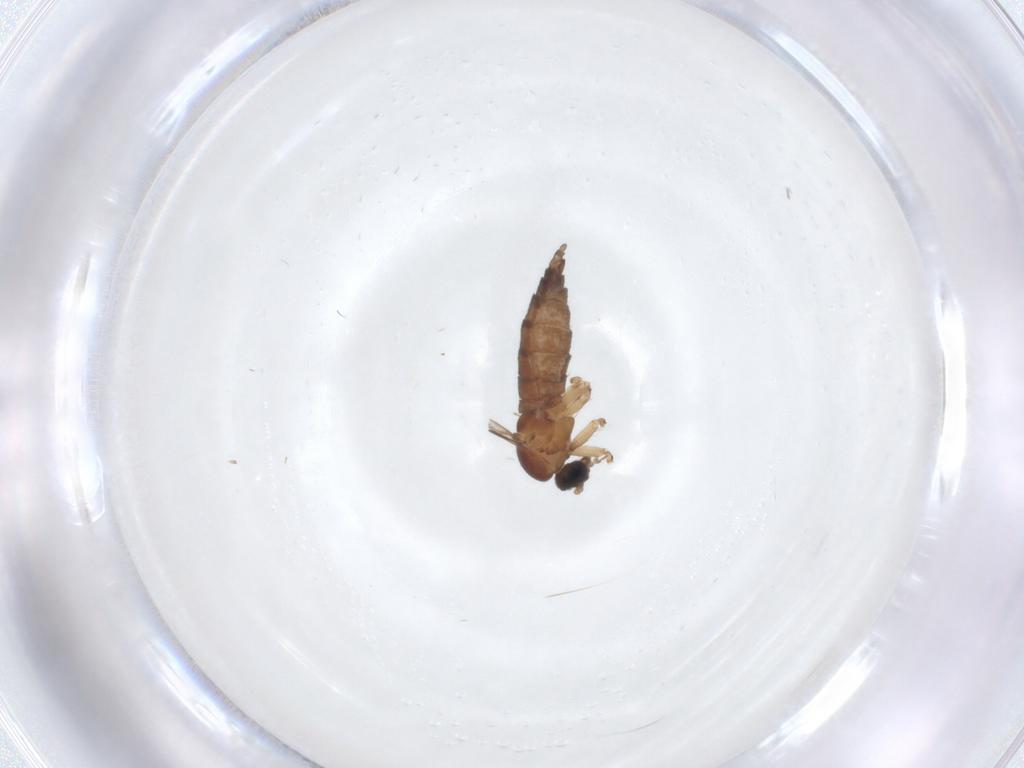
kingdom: Animalia
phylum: Arthropoda
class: Insecta
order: Diptera
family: Sciaridae
